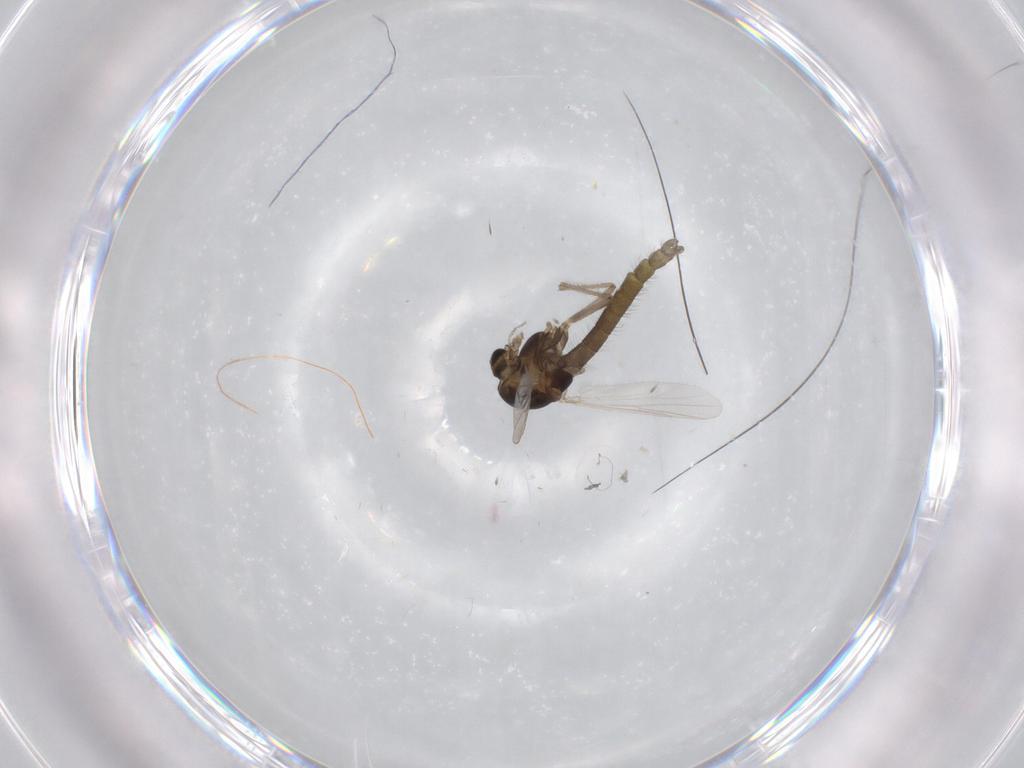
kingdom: Animalia
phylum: Arthropoda
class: Insecta
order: Diptera
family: Chironomidae
